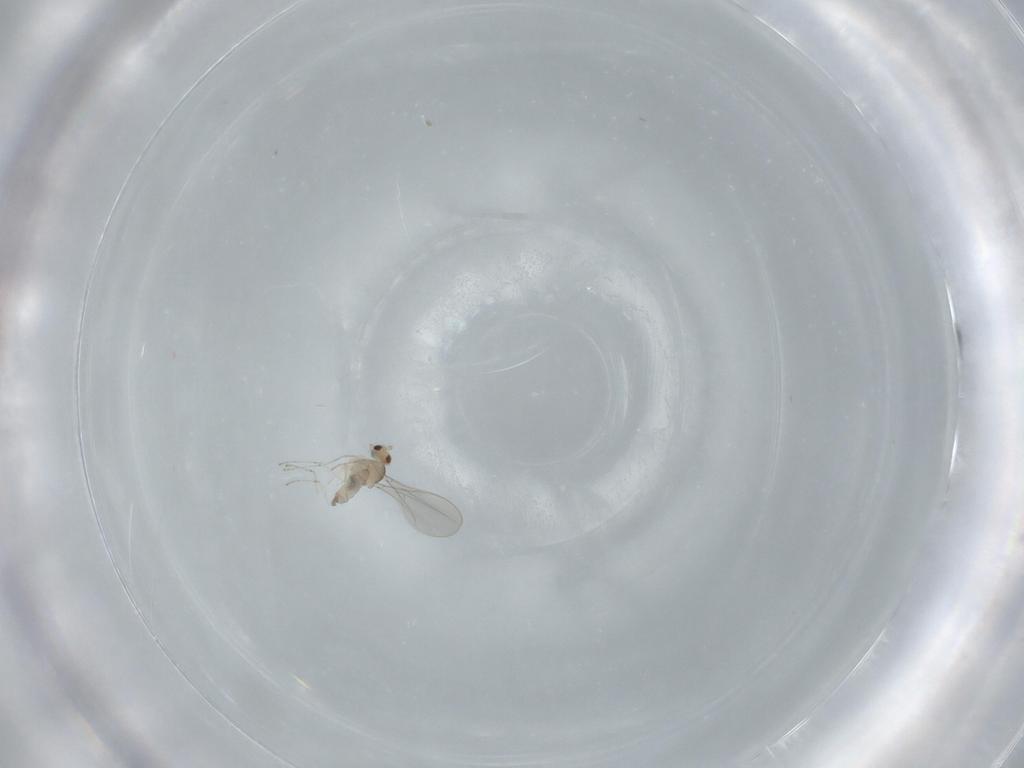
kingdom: Animalia
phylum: Arthropoda
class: Insecta
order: Diptera
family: Cecidomyiidae
